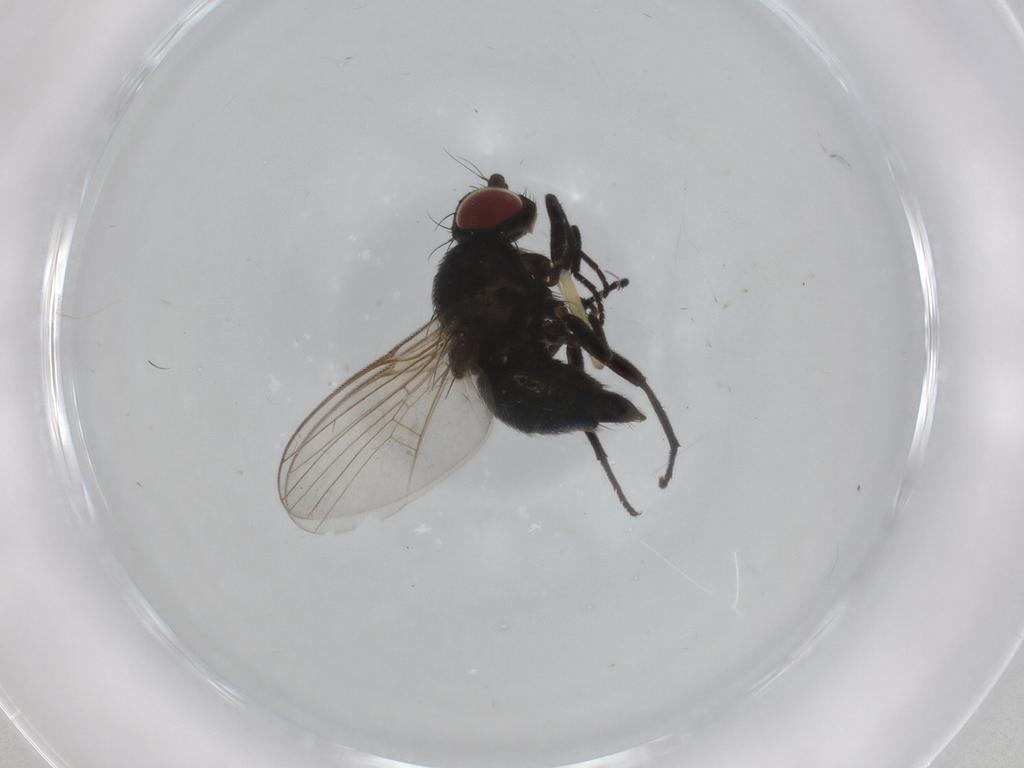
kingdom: Animalia
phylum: Arthropoda
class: Insecta
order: Diptera
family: Agromyzidae
